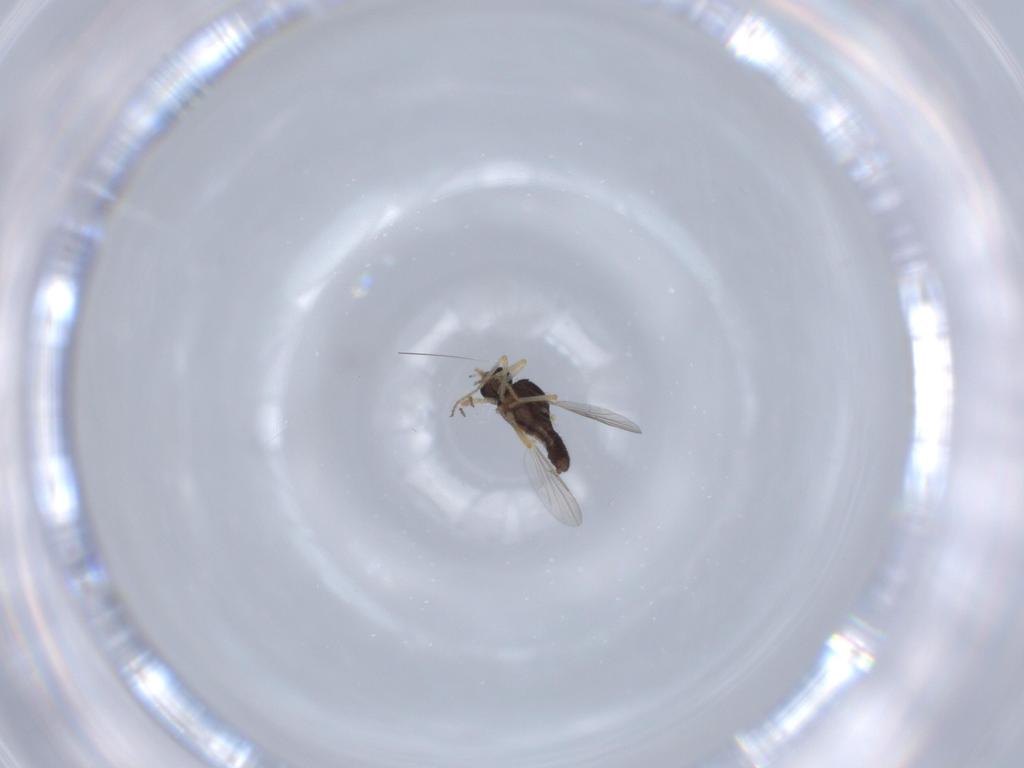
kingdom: Animalia
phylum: Arthropoda
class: Insecta
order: Diptera
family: Ceratopogonidae
